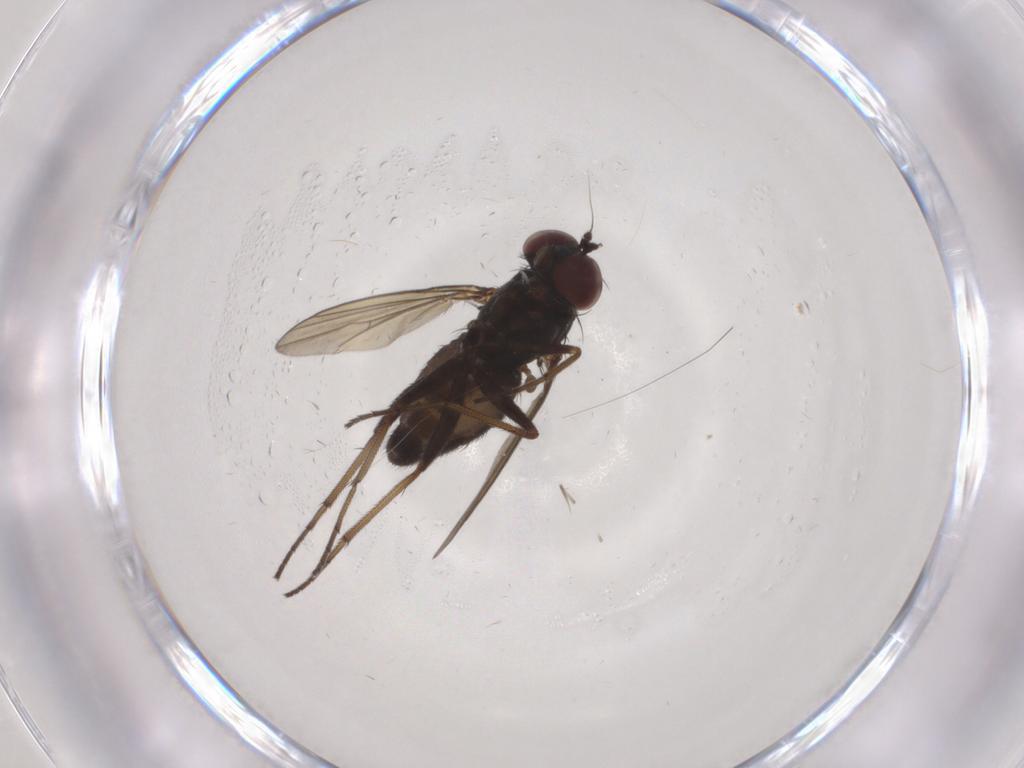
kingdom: Animalia
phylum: Arthropoda
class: Insecta
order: Diptera
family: Dolichopodidae
